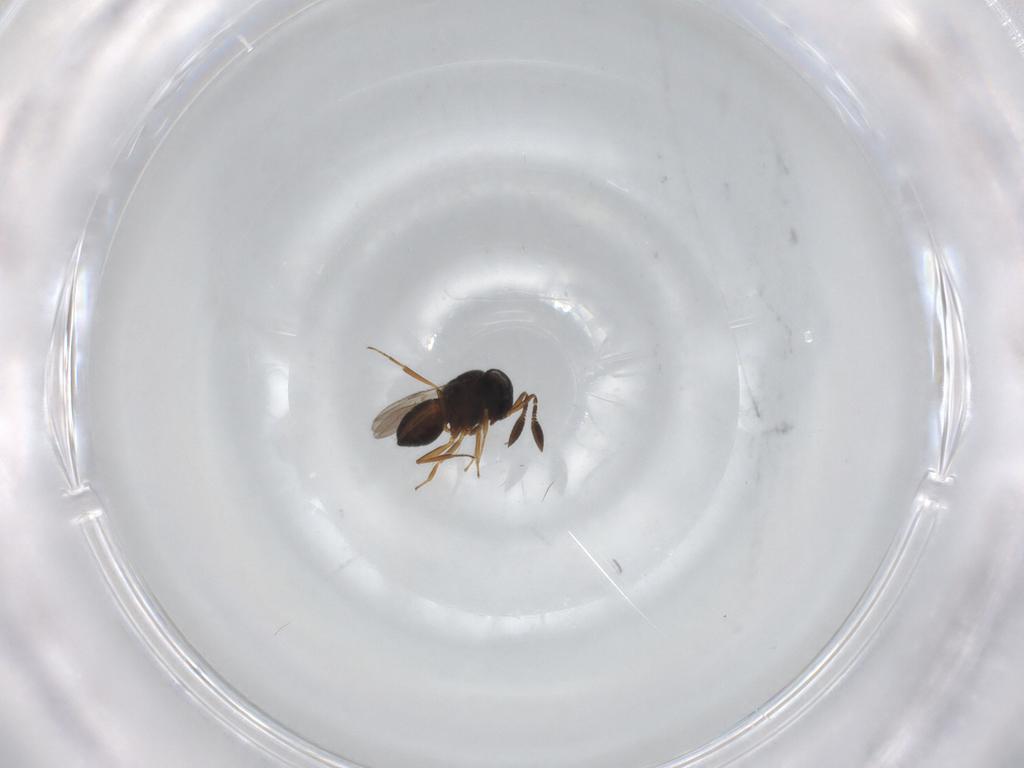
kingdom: Animalia
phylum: Arthropoda
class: Insecta
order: Hymenoptera
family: Scelionidae
